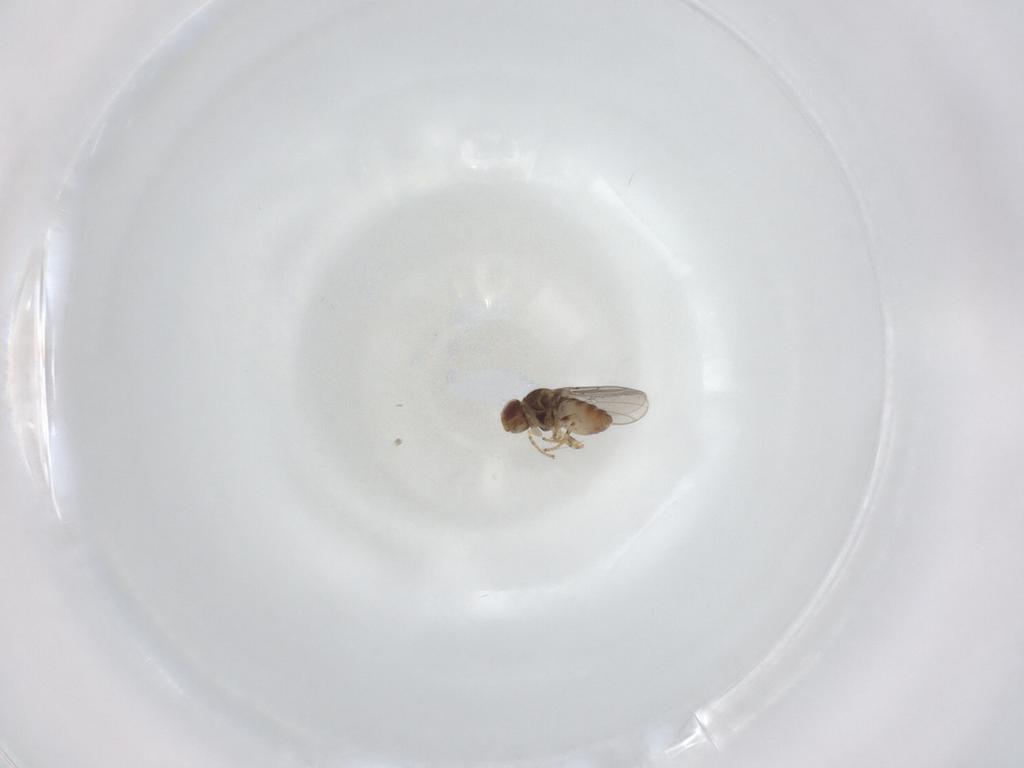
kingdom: Animalia
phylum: Arthropoda
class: Insecta
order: Diptera
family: Chloropidae
